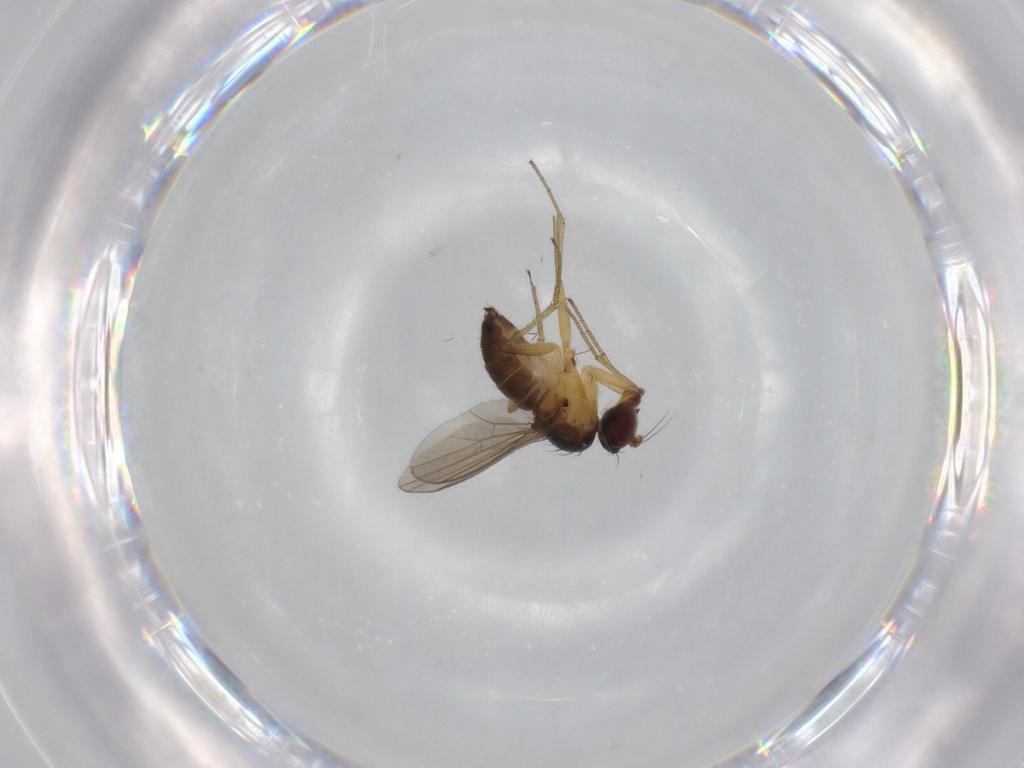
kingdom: Animalia
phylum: Arthropoda
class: Insecta
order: Diptera
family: Dolichopodidae
